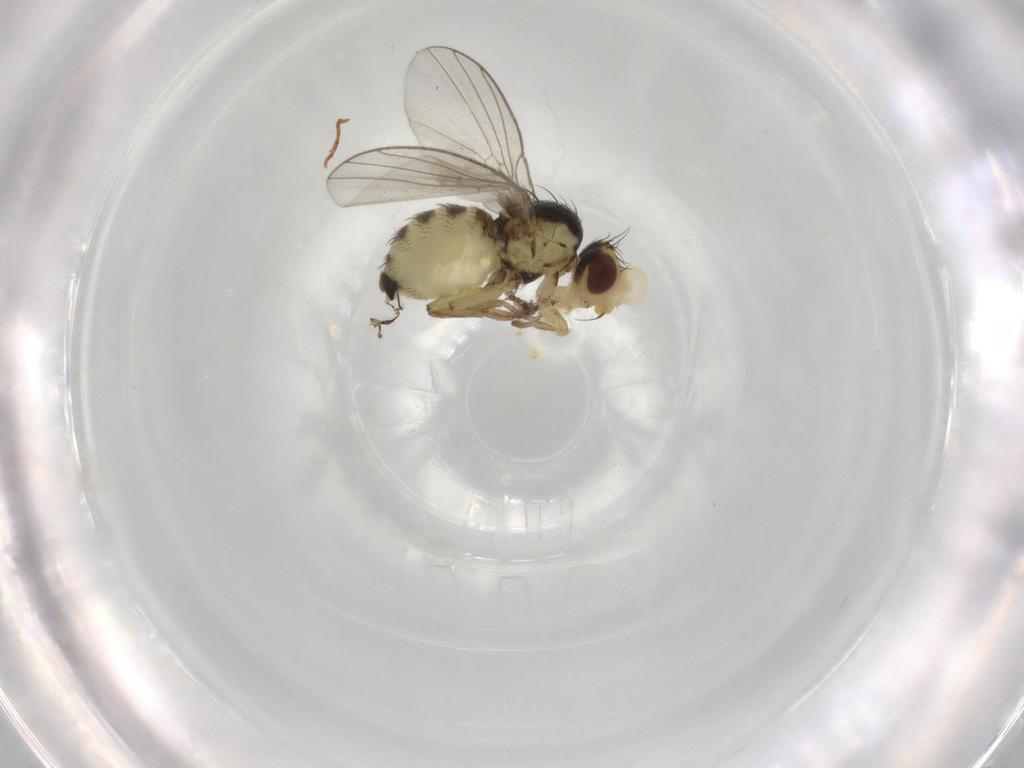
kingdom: Animalia
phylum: Arthropoda
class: Insecta
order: Diptera
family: Agromyzidae
